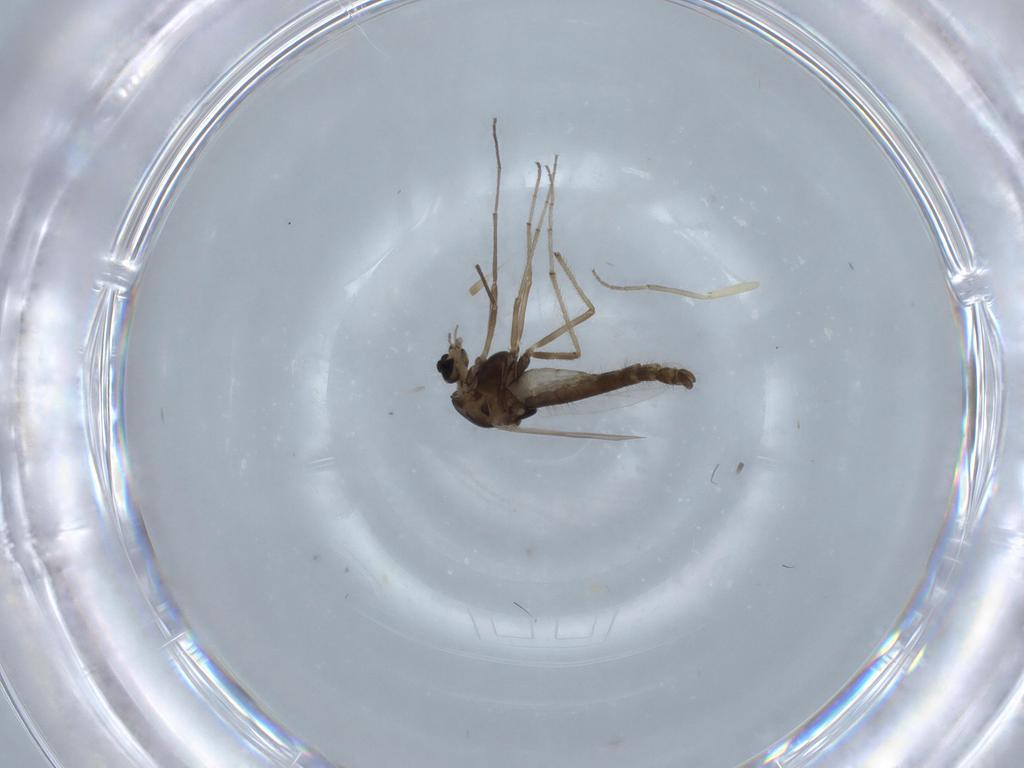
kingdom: Animalia
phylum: Arthropoda
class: Insecta
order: Diptera
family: Chironomidae
